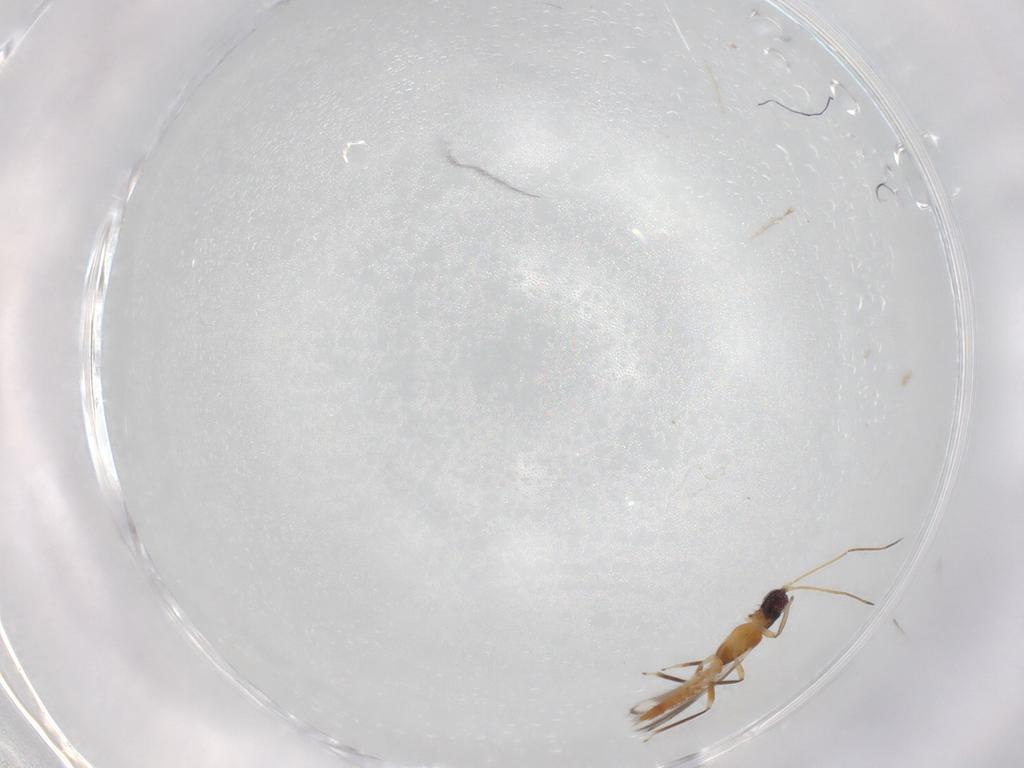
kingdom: Animalia
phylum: Arthropoda
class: Insecta
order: Thysanoptera
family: Aeolothripidae
